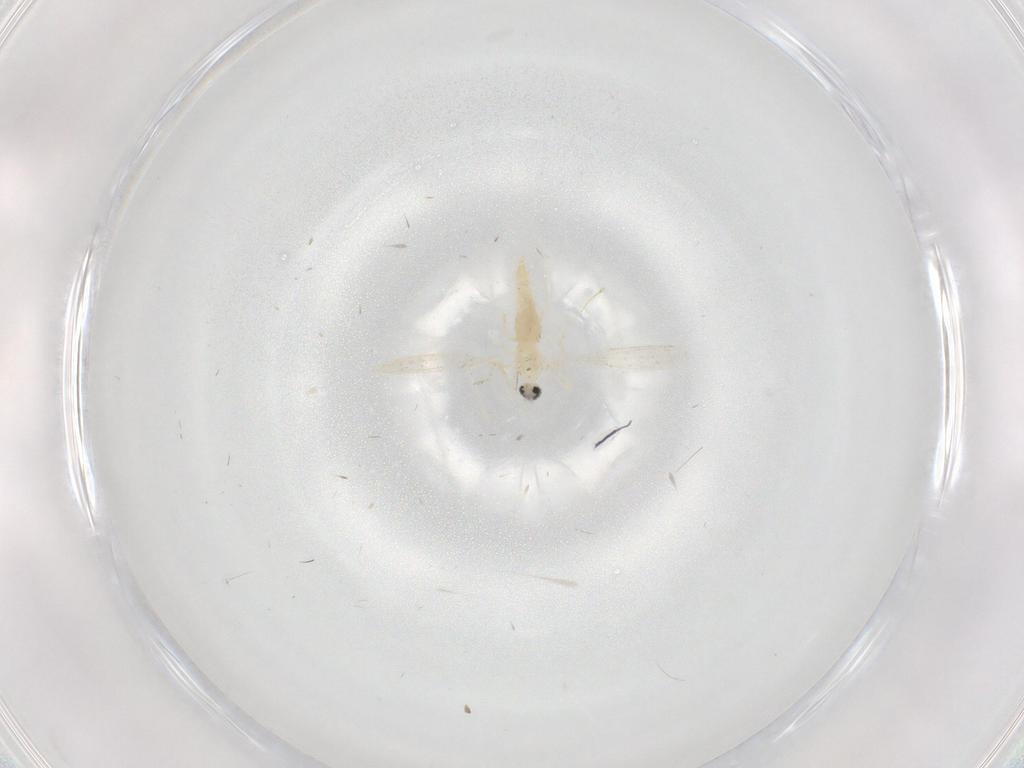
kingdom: Animalia
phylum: Arthropoda
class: Insecta
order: Diptera
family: Cecidomyiidae
